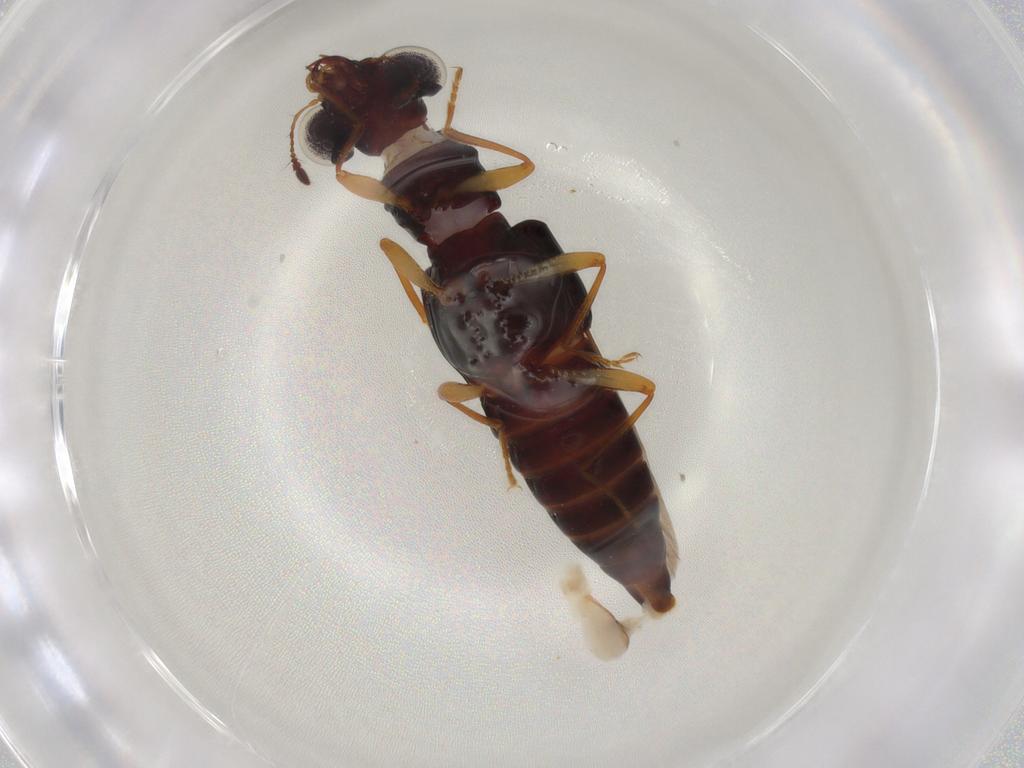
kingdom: Animalia
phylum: Arthropoda
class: Insecta
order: Coleoptera
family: Staphylinidae
